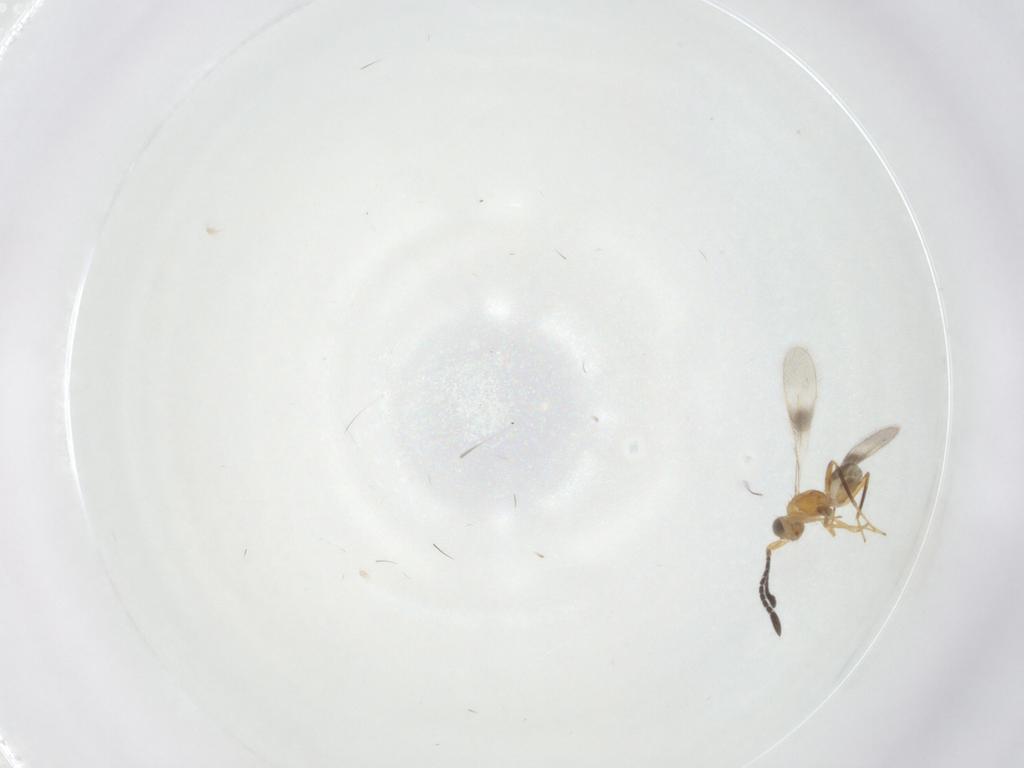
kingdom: Animalia
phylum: Arthropoda
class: Insecta
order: Hymenoptera
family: Mymaridae
